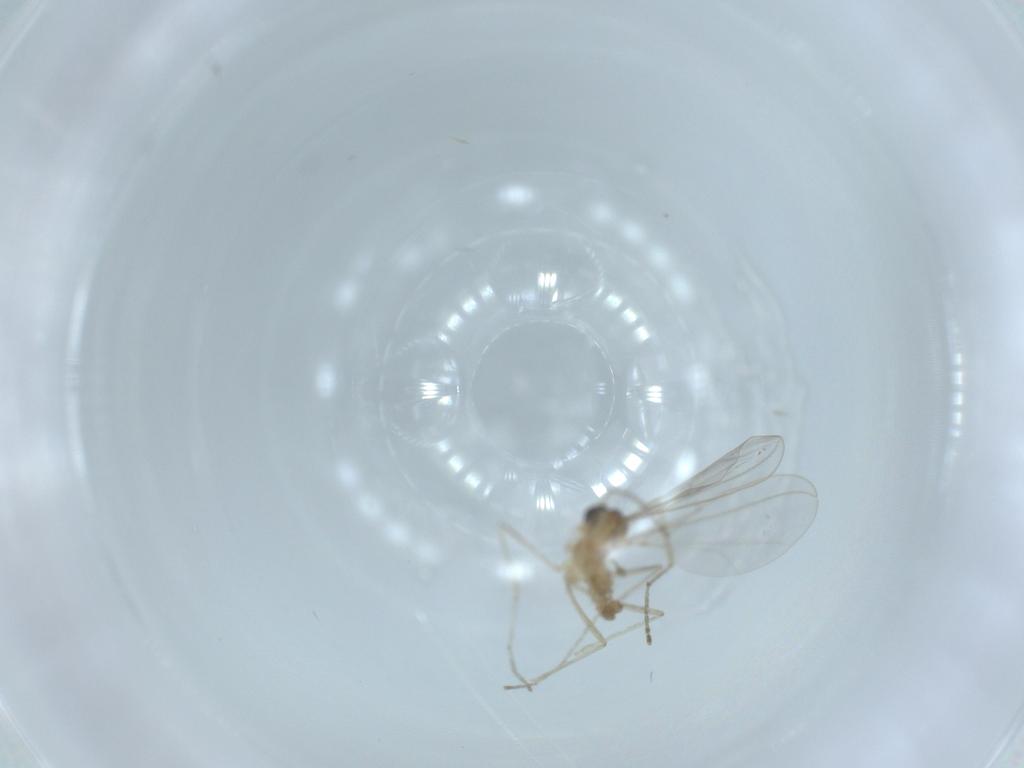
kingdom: Animalia
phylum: Arthropoda
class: Insecta
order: Diptera
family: Cecidomyiidae
